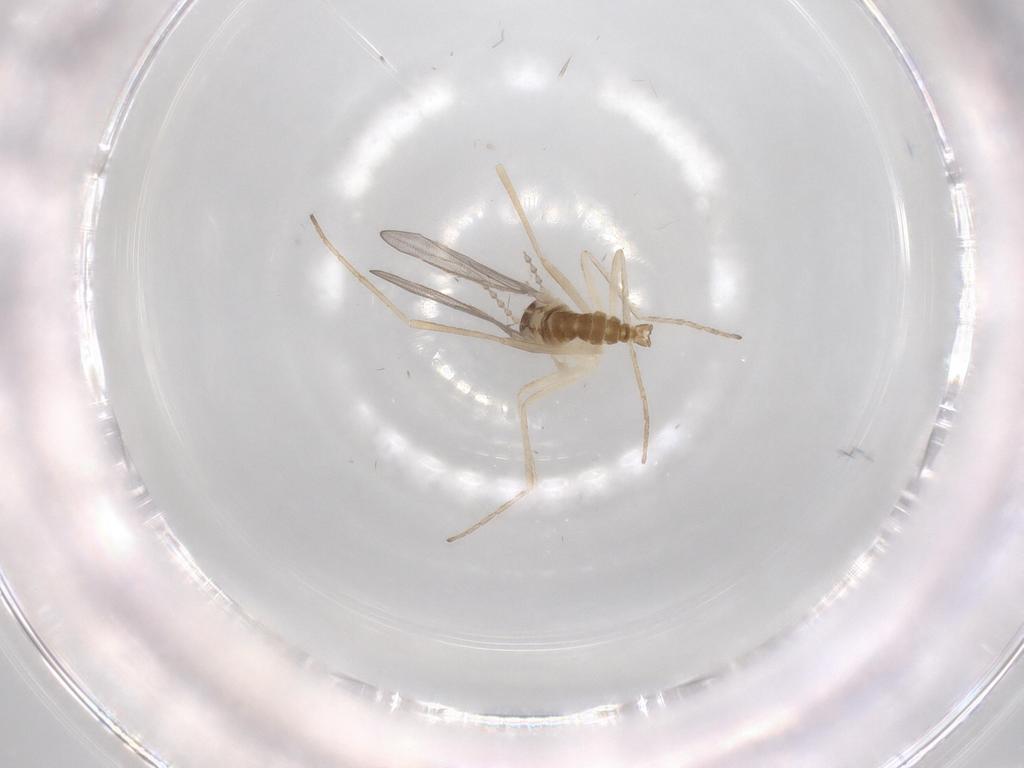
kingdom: Animalia
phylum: Arthropoda
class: Insecta
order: Diptera
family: Cecidomyiidae
